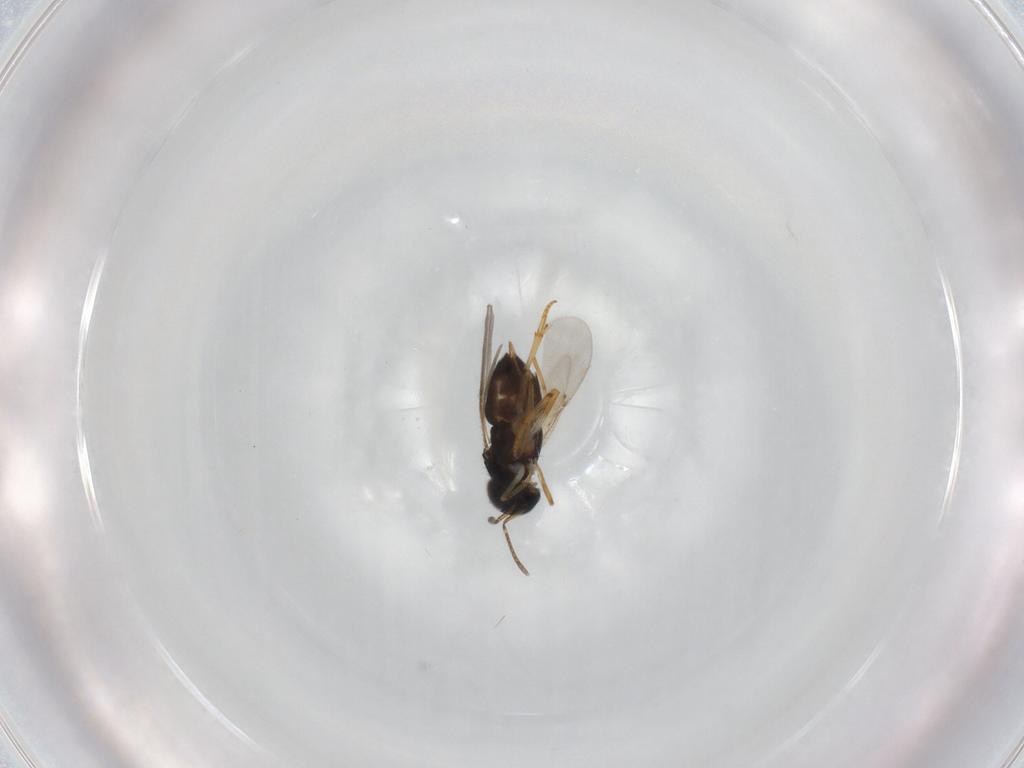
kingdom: Animalia
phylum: Arthropoda
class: Insecta
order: Hymenoptera
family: Encyrtidae
